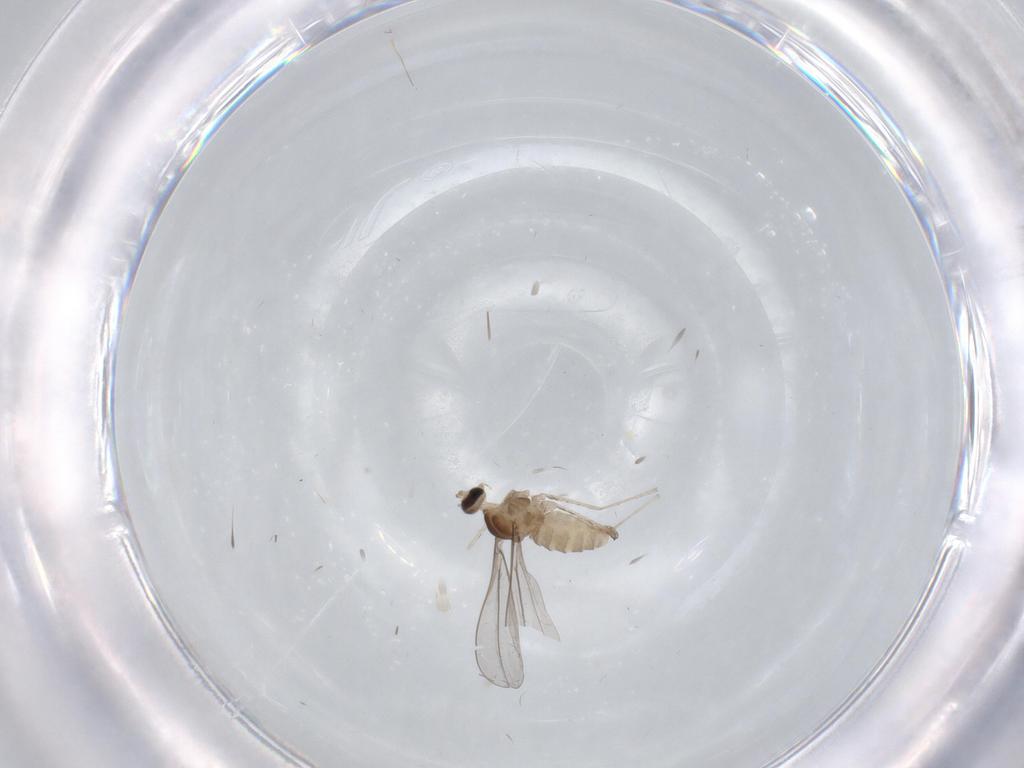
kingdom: Animalia
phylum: Arthropoda
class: Insecta
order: Diptera
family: Cecidomyiidae
